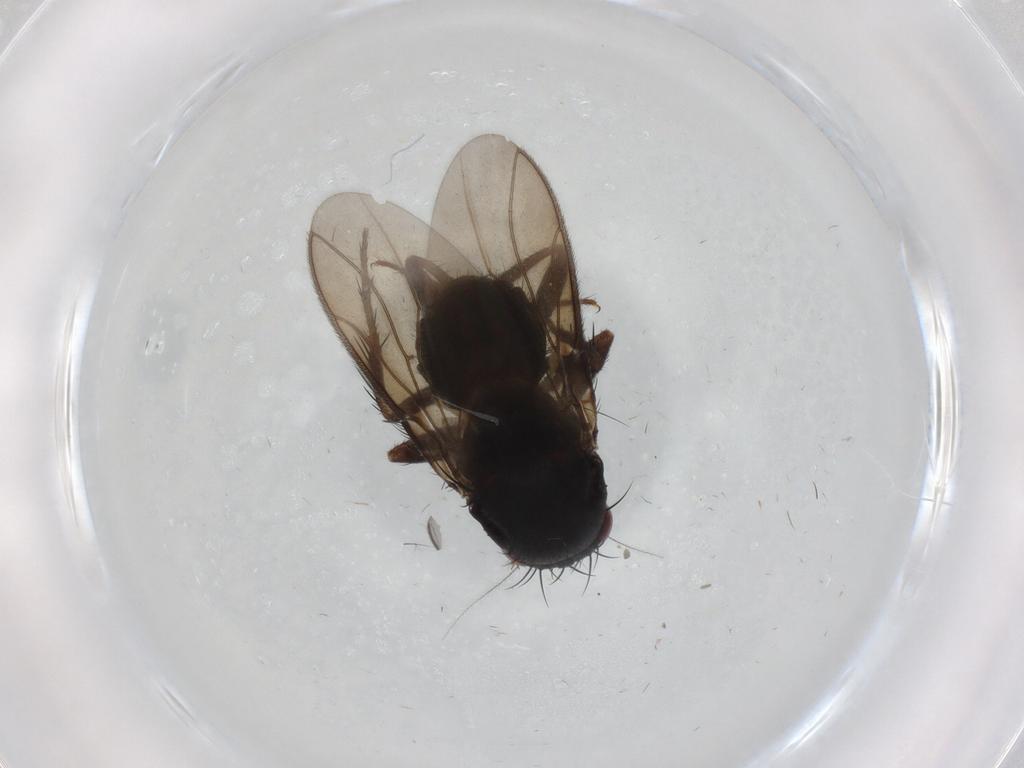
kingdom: Animalia
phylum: Arthropoda
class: Insecta
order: Diptera
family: Sphaeroceridae
